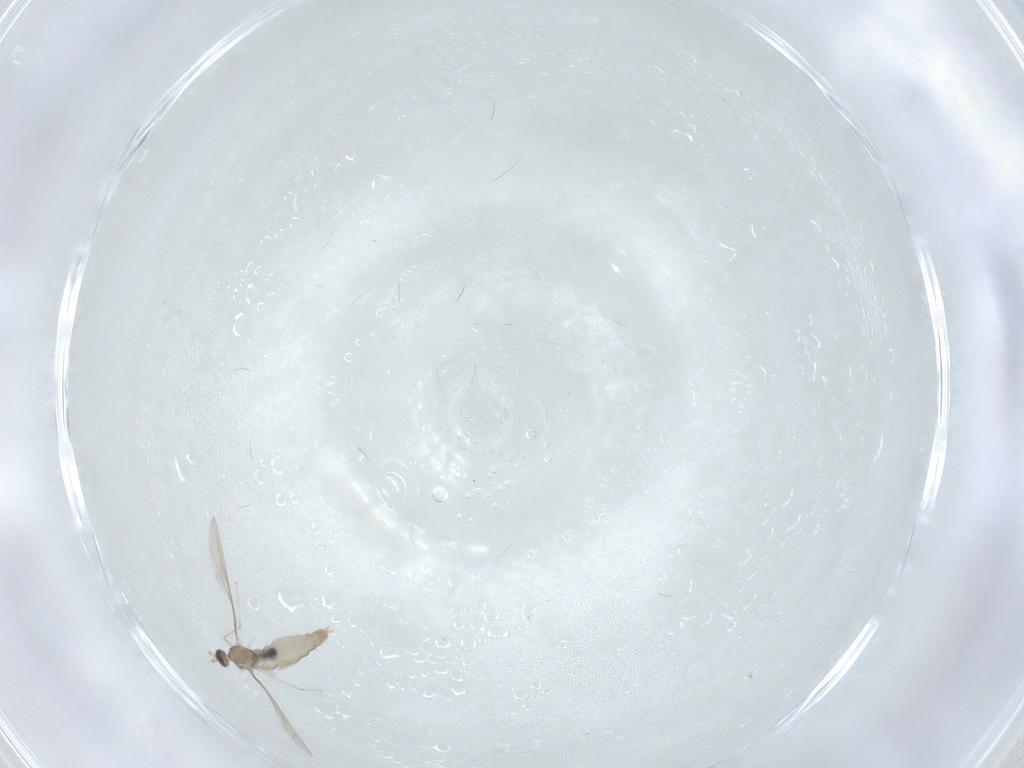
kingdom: Animalia
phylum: Arthropoda
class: Insecta
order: Diptera
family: Cecidomyiidae
